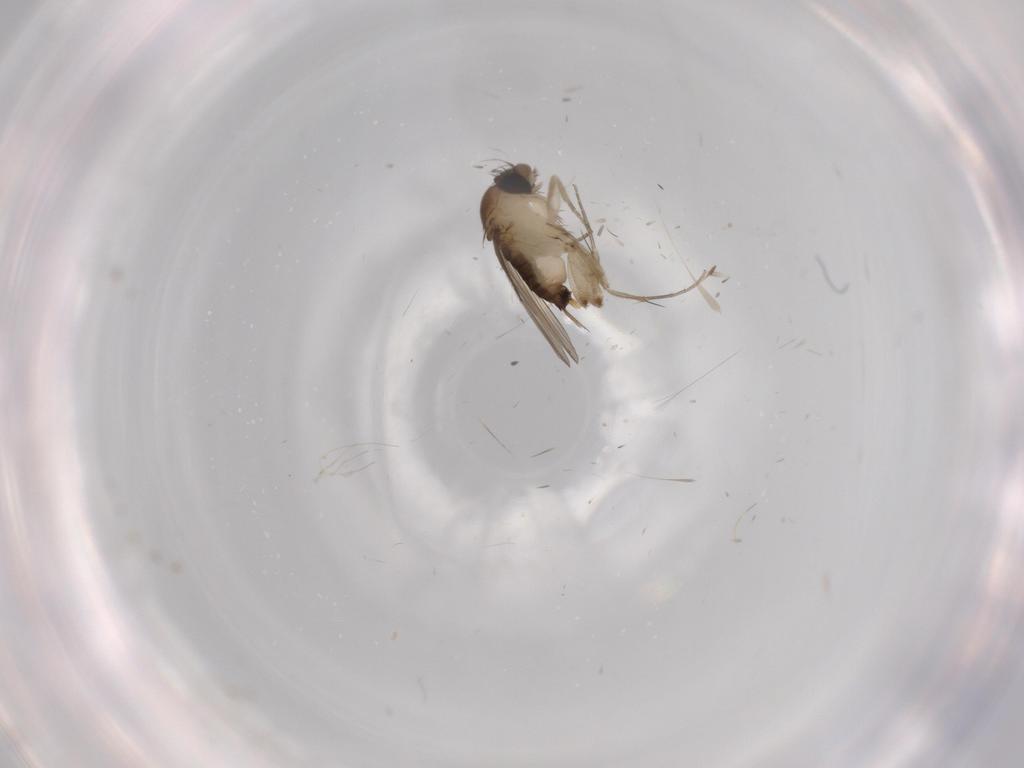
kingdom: Animalia
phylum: Arthropoda
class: Insecta
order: Diptera
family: Phoridae
